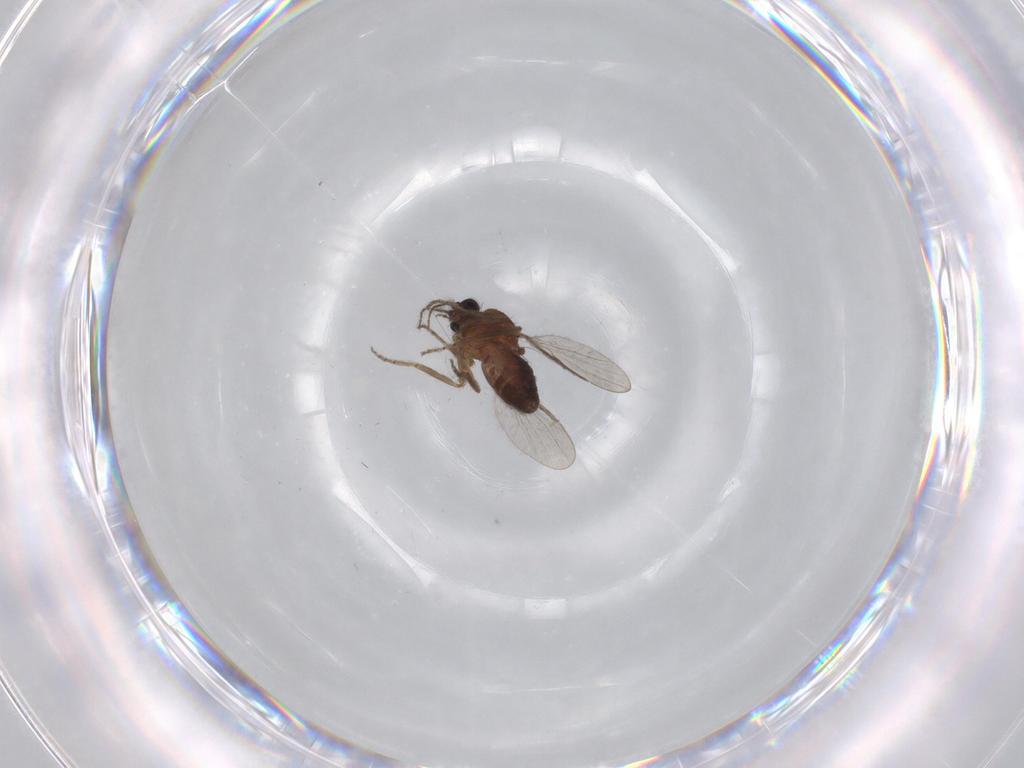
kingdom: Animalia
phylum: Arthropoda
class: Insecta
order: Diptera
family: Ceratopogonidae
